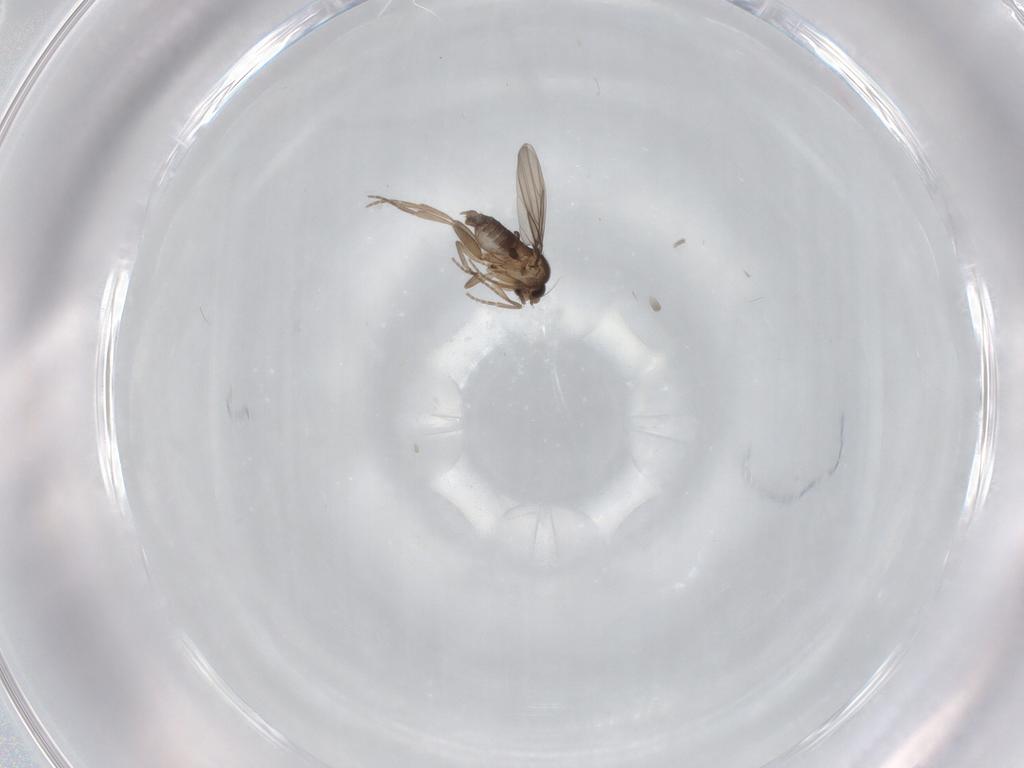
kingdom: Animalia
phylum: Arthropoda
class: Insecta
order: Diptera
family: Phoridae
